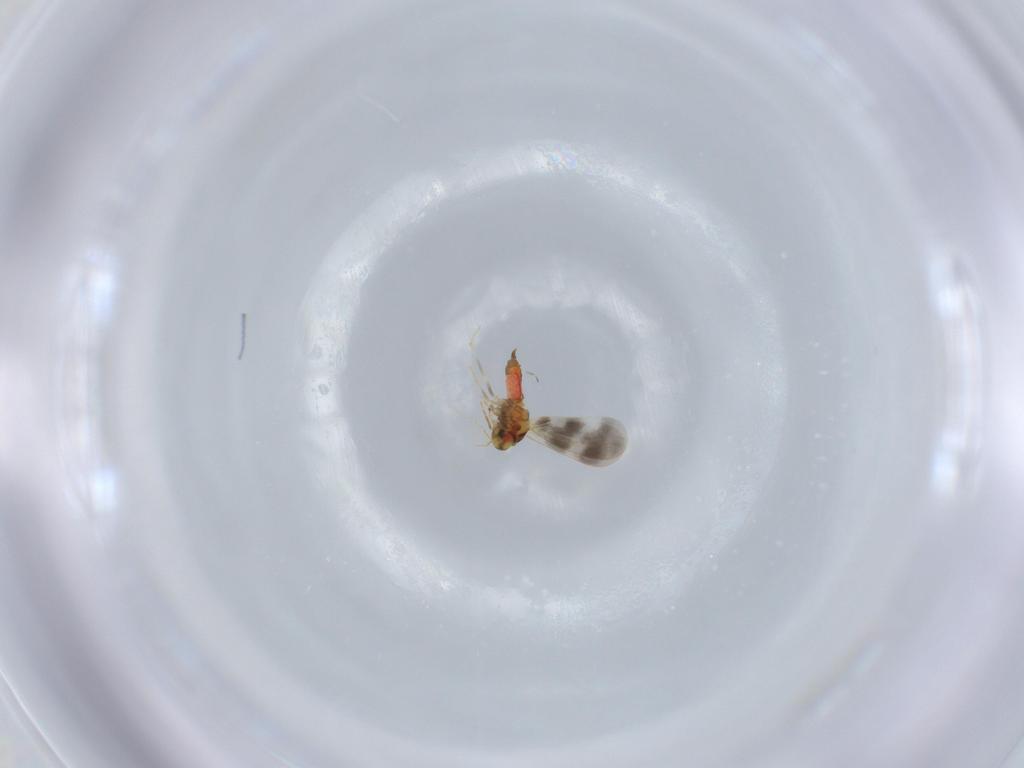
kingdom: Animalia
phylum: Arthropoda
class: Insecta
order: Hemiptera
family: Aleyrodidae
